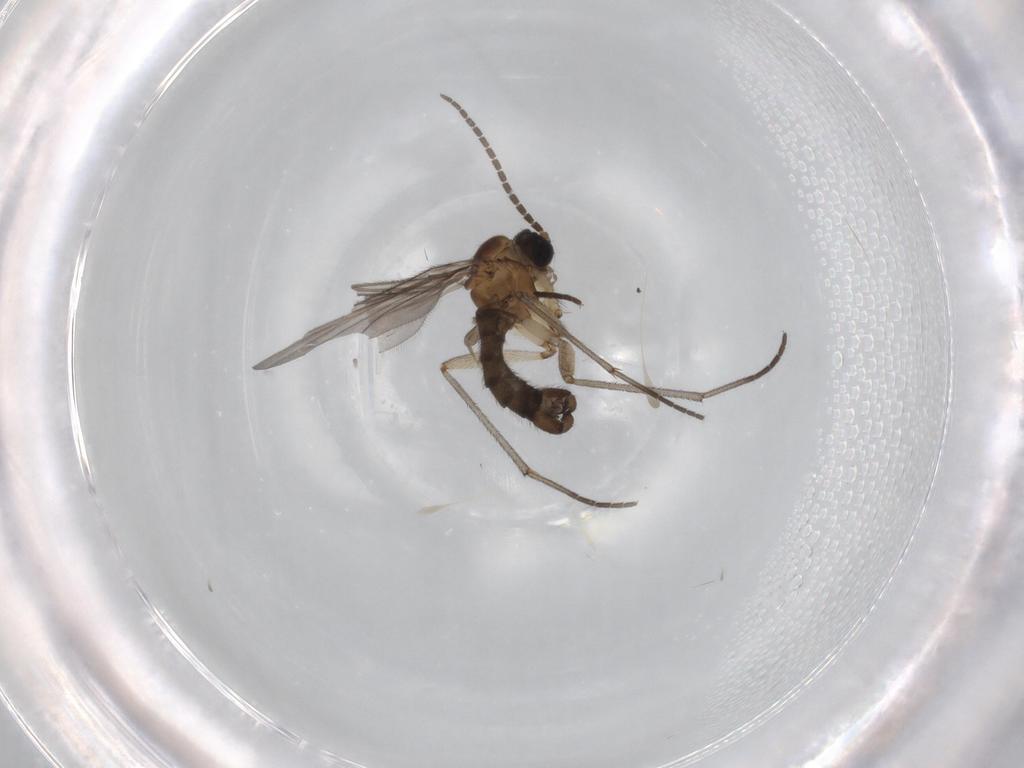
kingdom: Animalia
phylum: Arthropoda
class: Insecta
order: Diptera
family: Sciaridae
